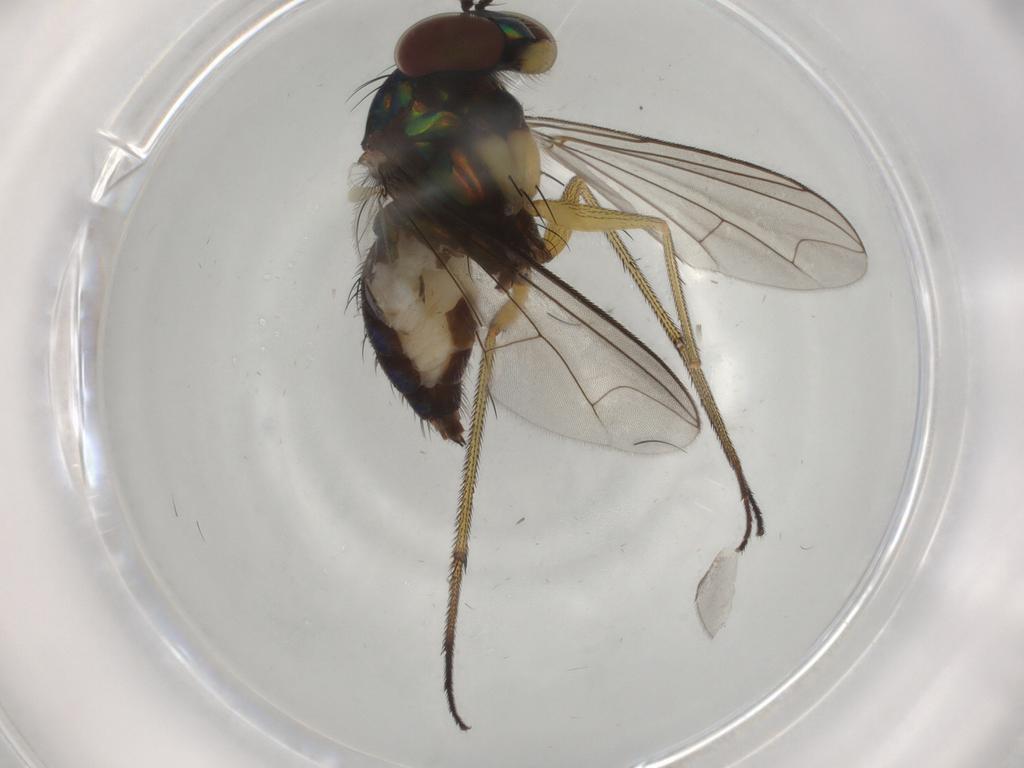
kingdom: Animalia
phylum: Arthropoda
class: Insecta
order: Diptera
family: Dolichopodidae
